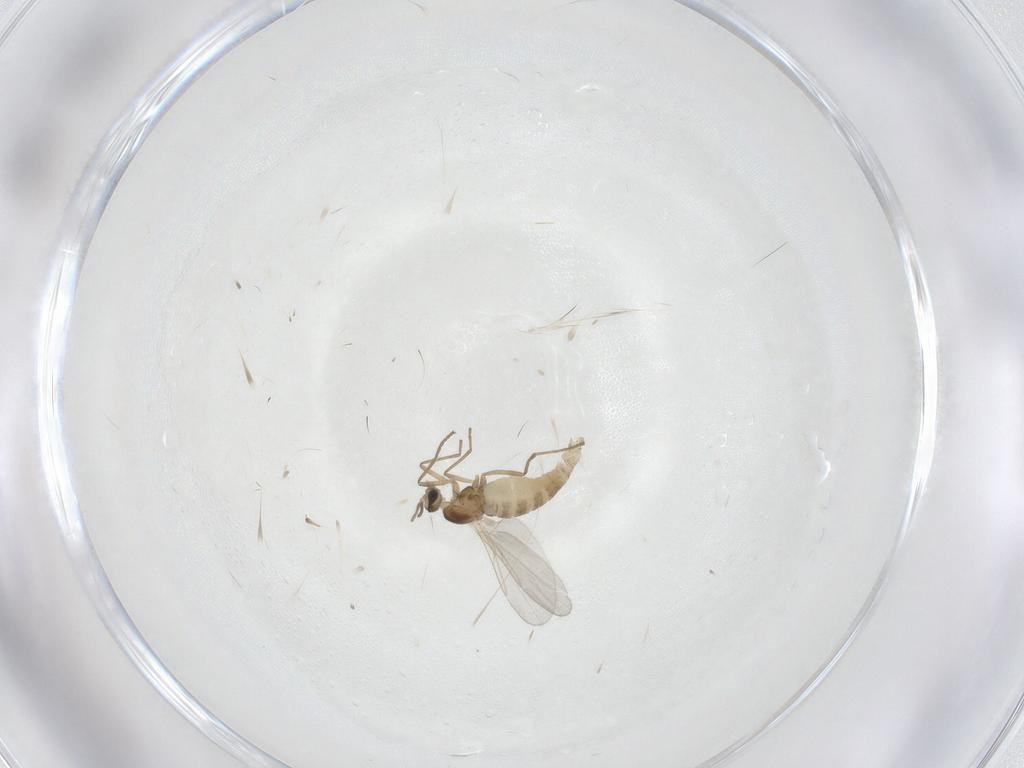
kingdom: Animalia
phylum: Arthropoda
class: Insecta
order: Diptera
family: Cecidomyiidae
